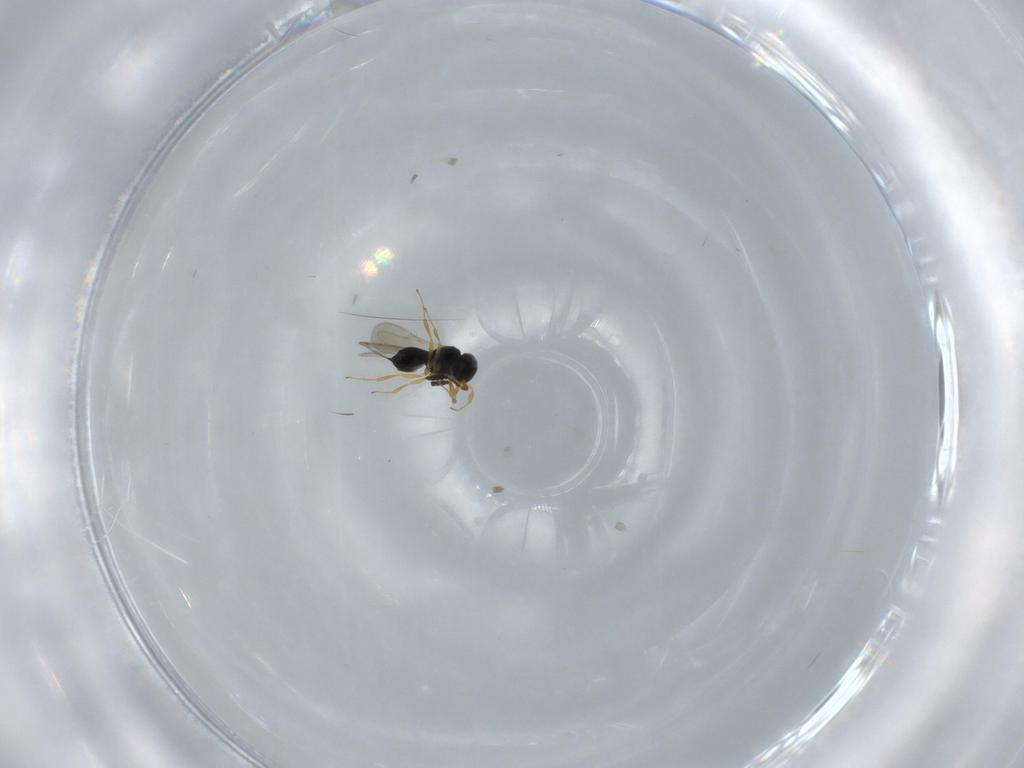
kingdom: Animalia
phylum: Arthropoda
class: Insecta
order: Hymenoptera
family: Scelionidae
